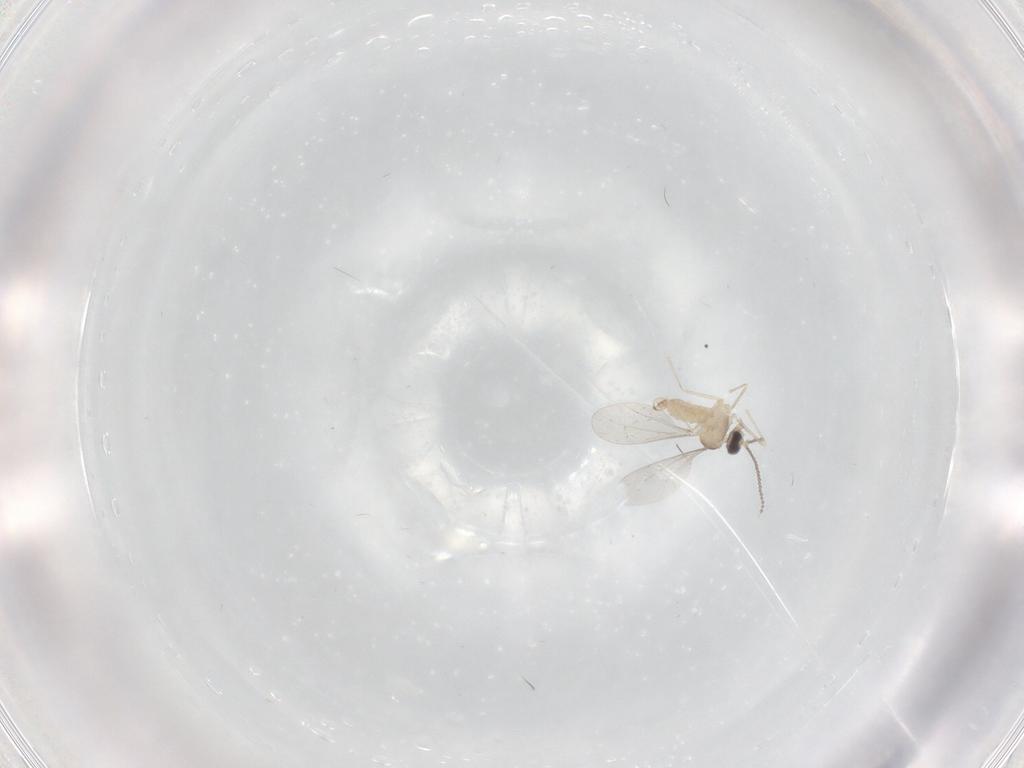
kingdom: Animalia
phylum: Arthropoda
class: Insecta
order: Diptera
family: Cecidomyiidae
